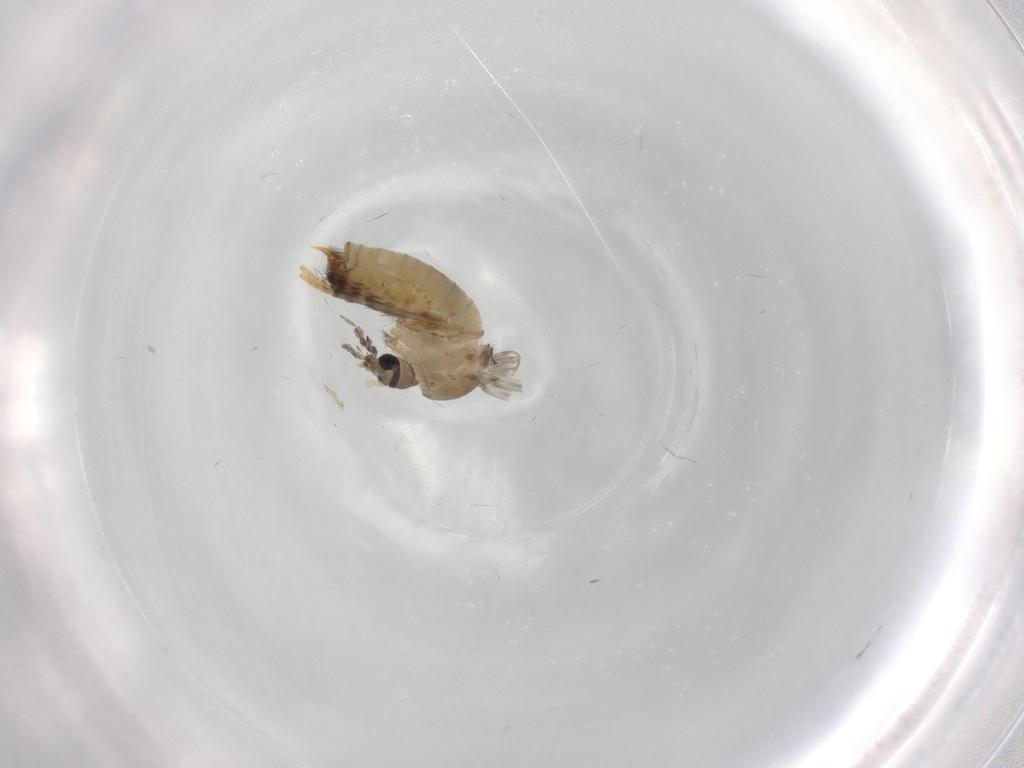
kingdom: Animalia
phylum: Arthropoda
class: Insecta
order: Diptera
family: Psychodidae
